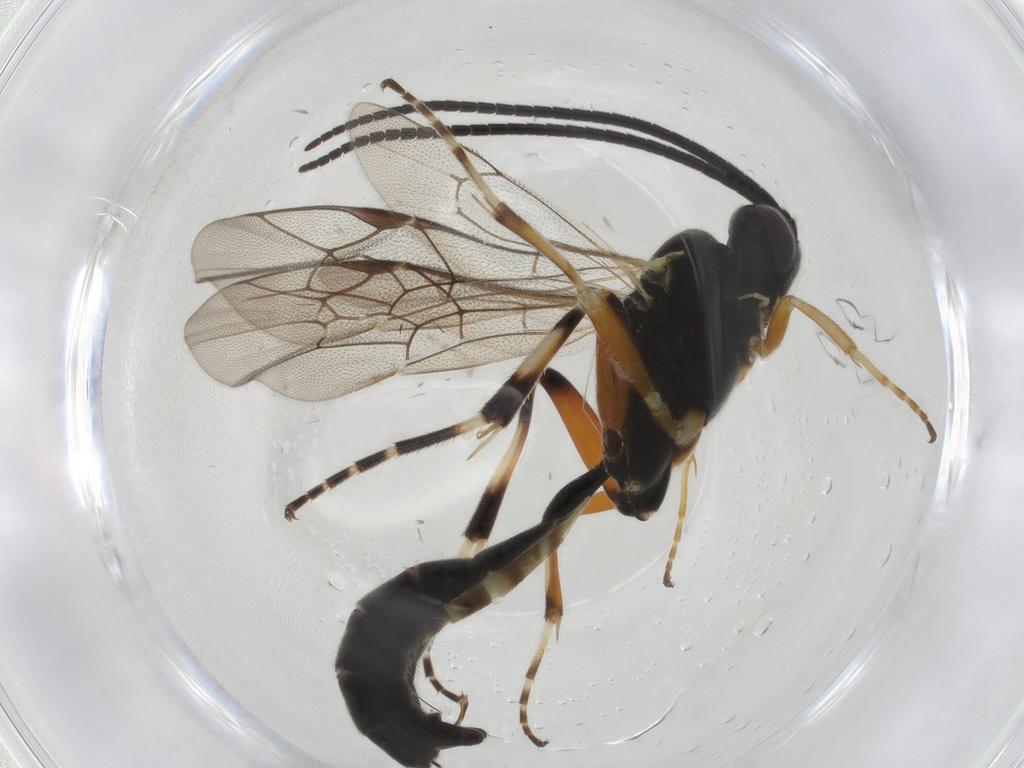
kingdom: Animalia
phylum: Arthropoda
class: Insecta
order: Hymenoptera
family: Ichneumonidae
